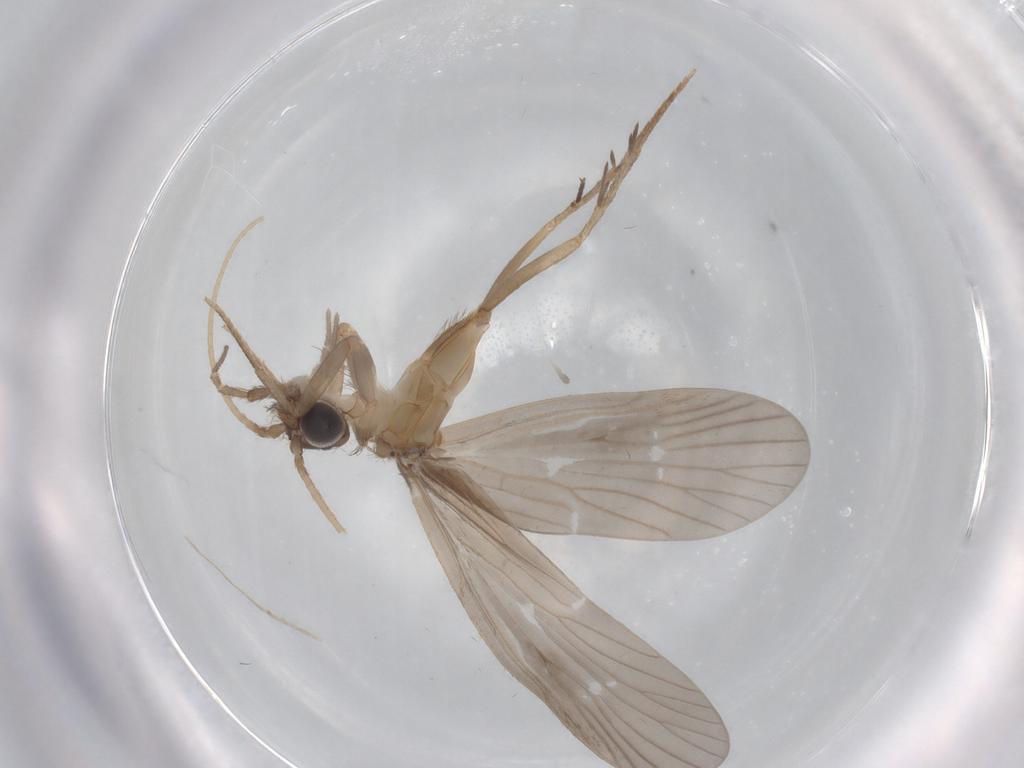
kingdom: Animalia
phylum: Arthropoda
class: Insecta
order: Trichoptera
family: Philopotamidae
